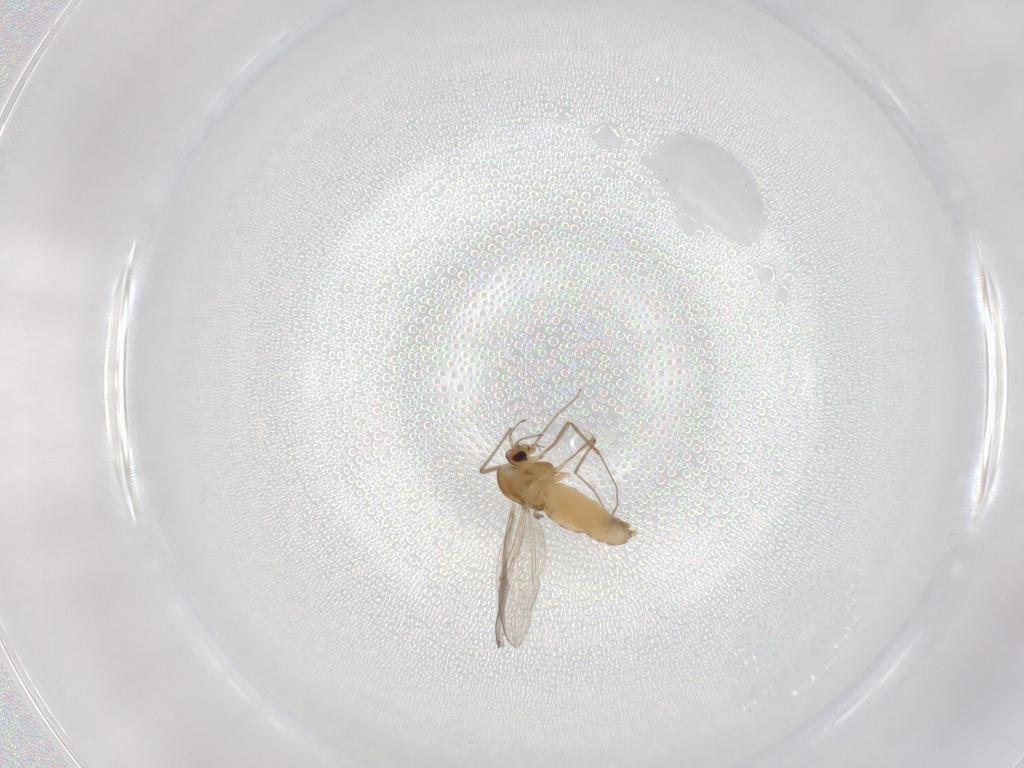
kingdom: Animalia
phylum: Arthropoda
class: Insecta
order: Diptera
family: Chironomidae
